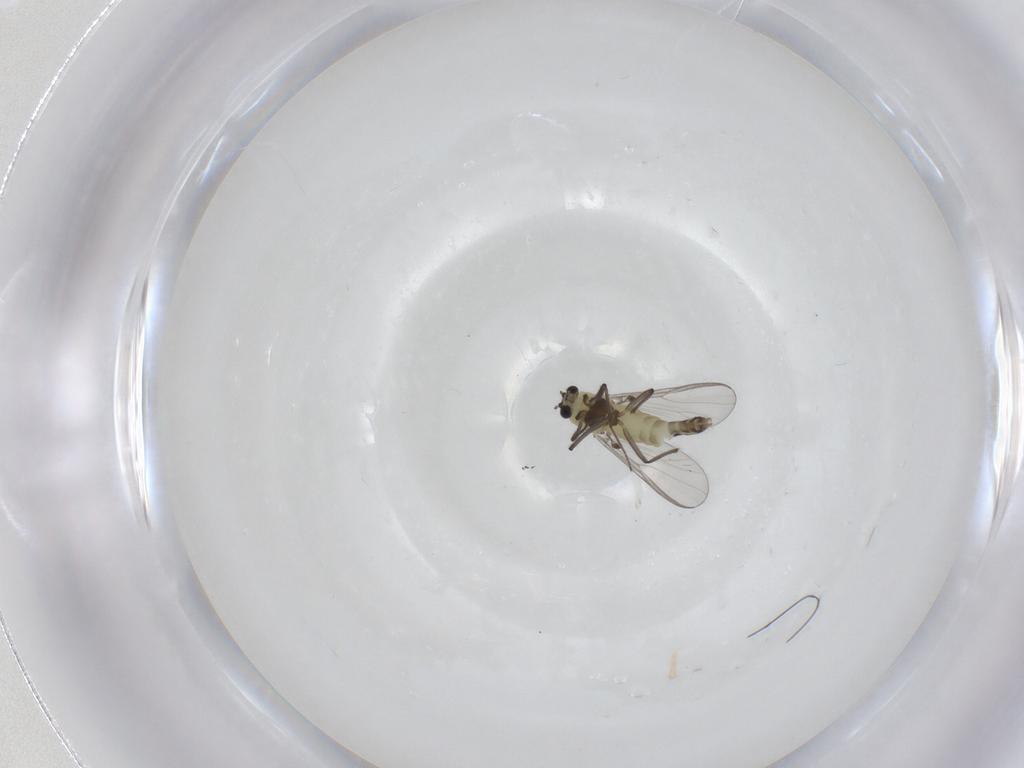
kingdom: Animalia
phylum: Arthropoda
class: Insecta
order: Diptera
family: Chironomidae
